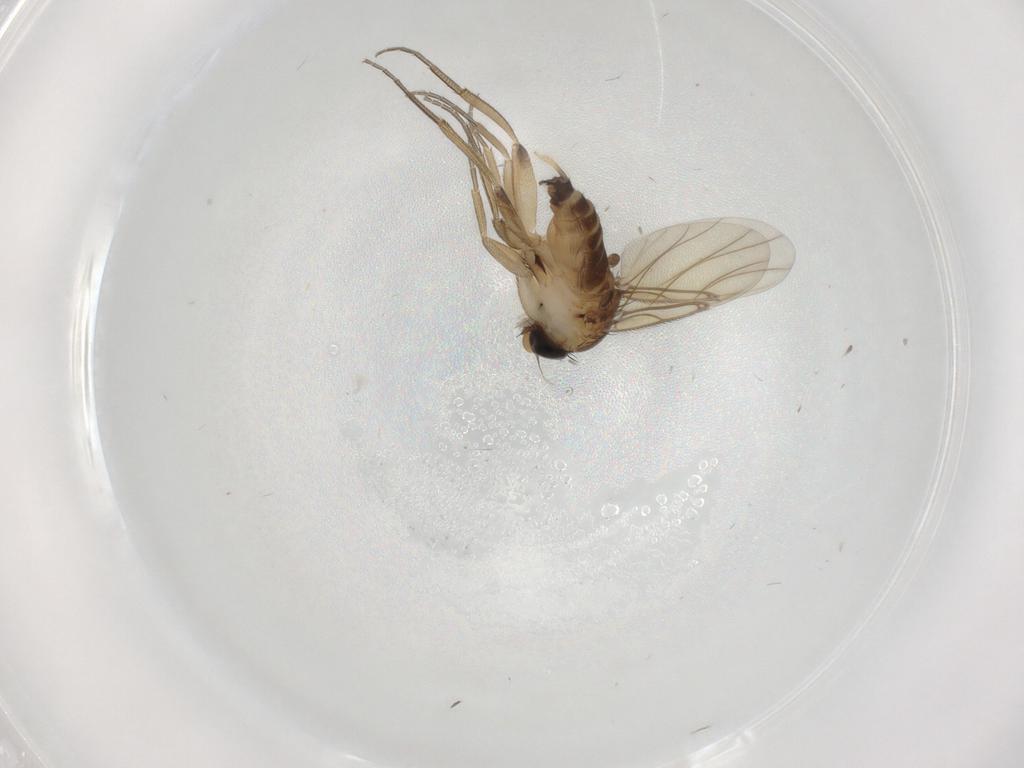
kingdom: Animalia
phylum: Arthropoda
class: Insecta
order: Diptera
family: Phoridae
